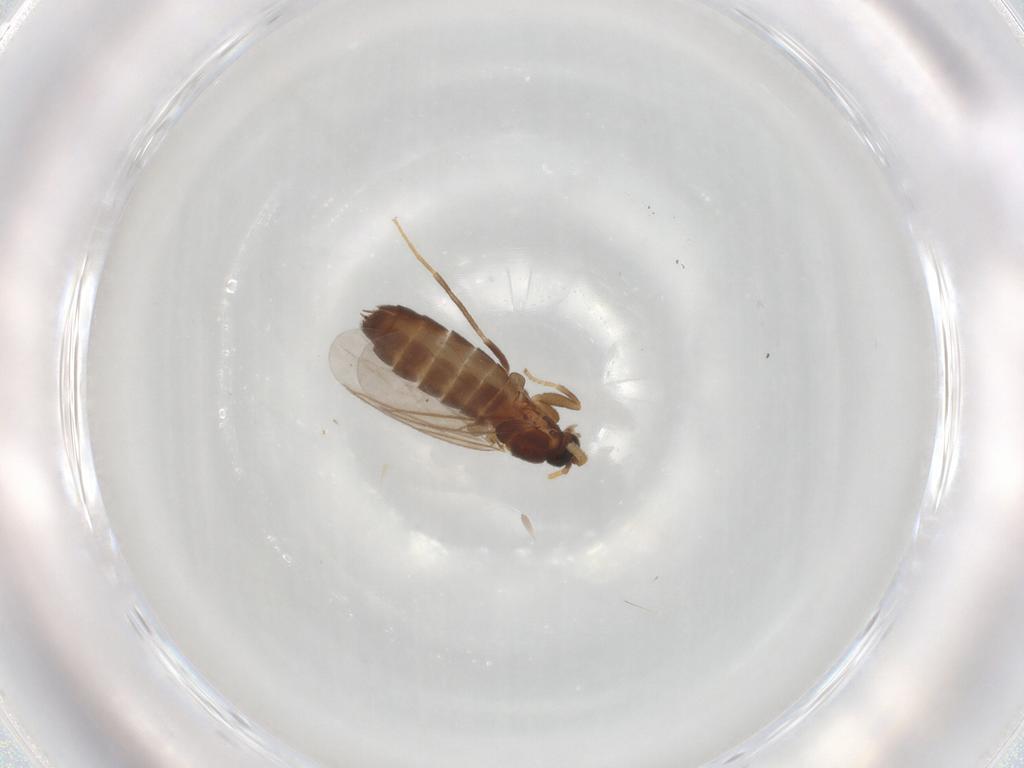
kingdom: Animalia
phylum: Arthropoda
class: Insecta
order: Diptera
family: Scatopsidae
